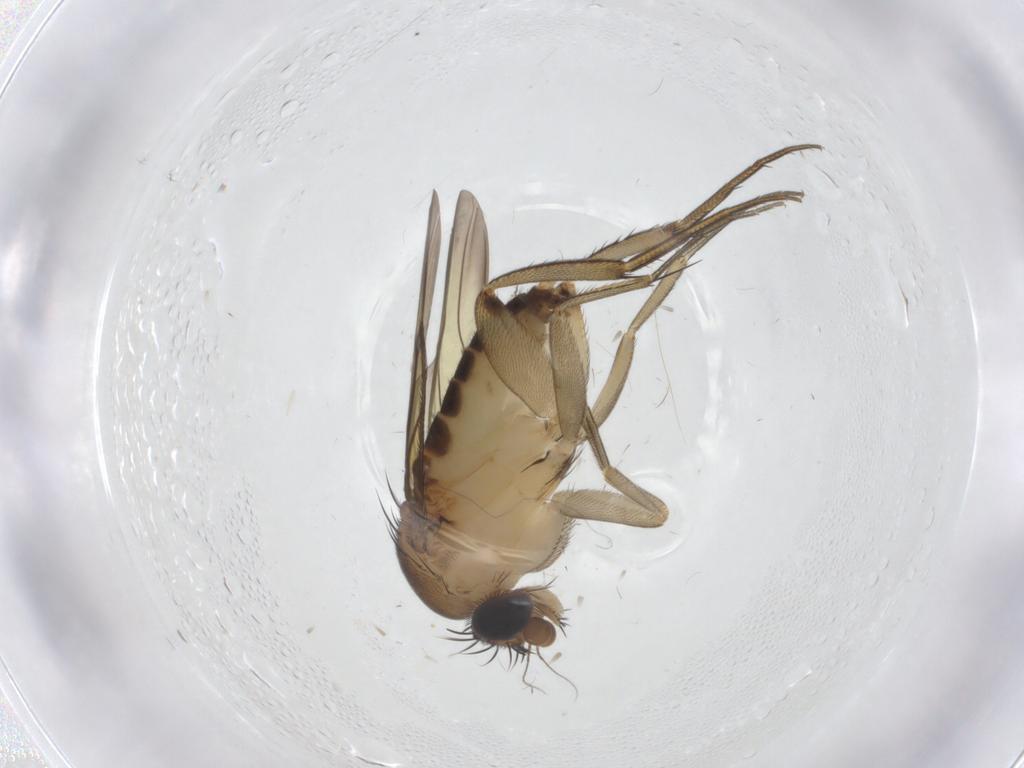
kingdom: Animalia
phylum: Arthropoda
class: Insecta
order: Diptera
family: Phoridae
